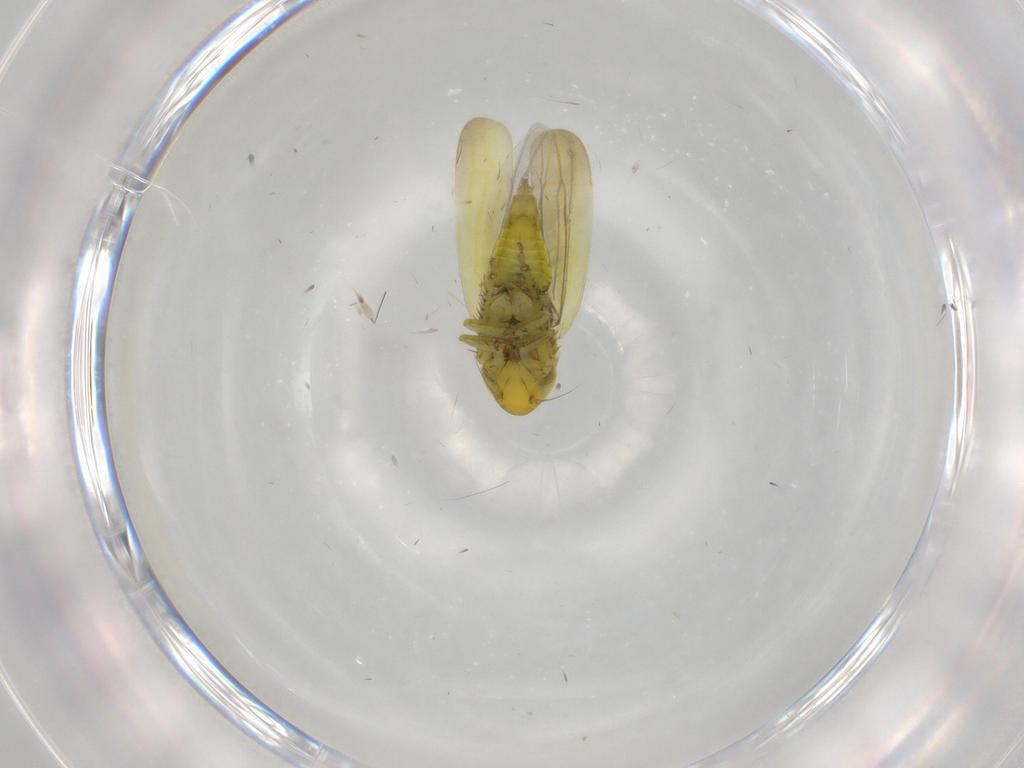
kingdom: Animalia
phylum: Arthropoda
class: Insecta
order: Hemiptera
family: Cicadellidae
